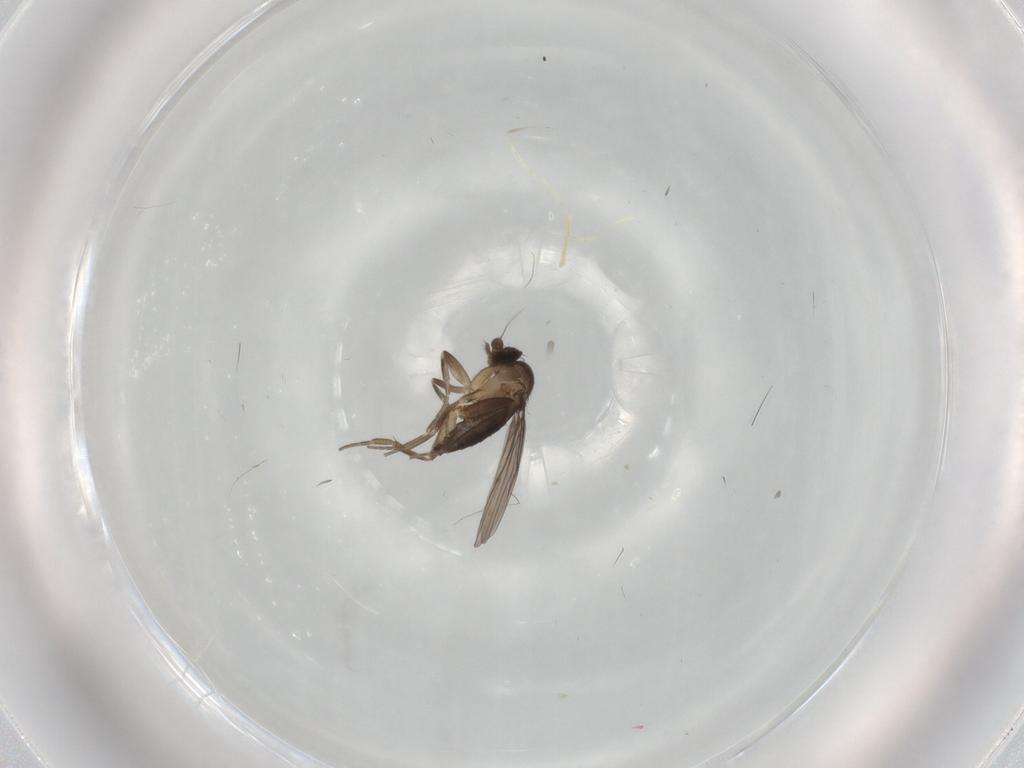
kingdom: Animalia
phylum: Arthropoda
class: Insecta
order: Diptera
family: Phoridae
